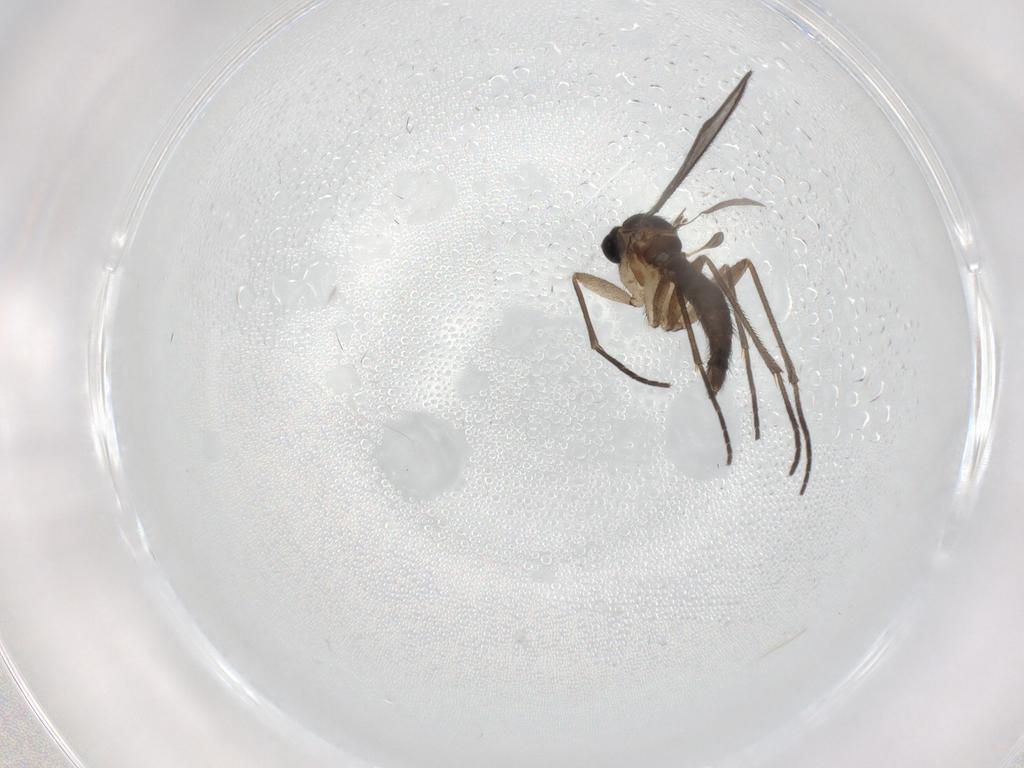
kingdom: Animalia
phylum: Arthropoda
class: Insecta
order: Diptera
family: Sciaridae
